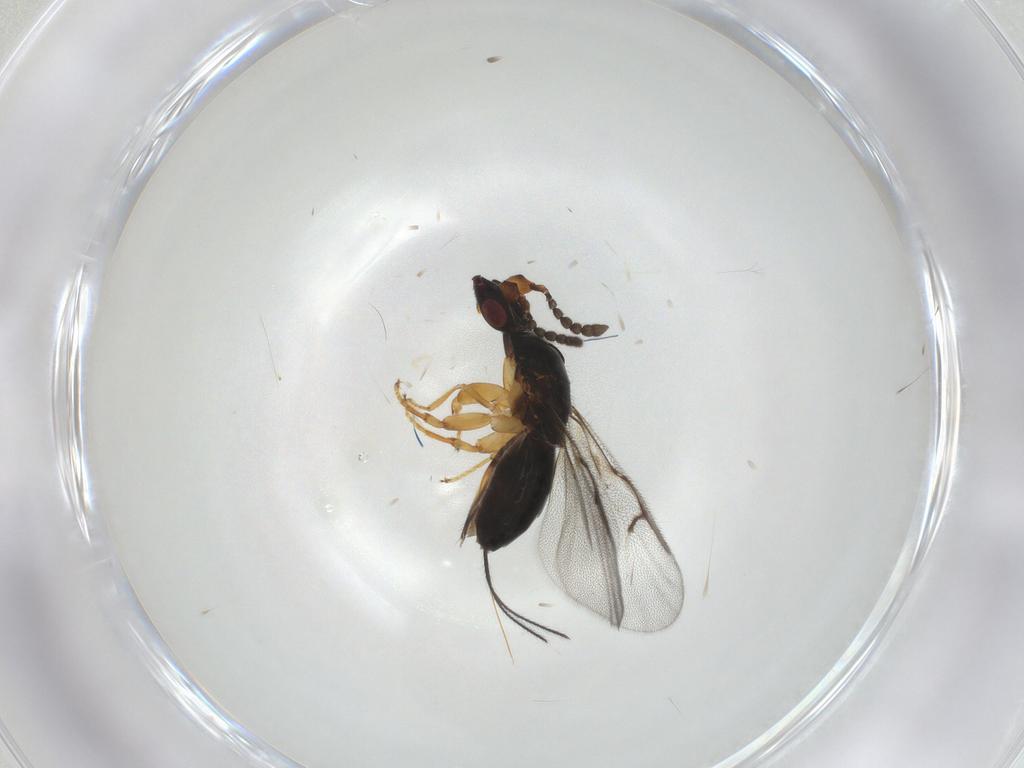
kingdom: Animalia
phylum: Arthropoda
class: Insecta
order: Hymenoptera
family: Agaonidae
